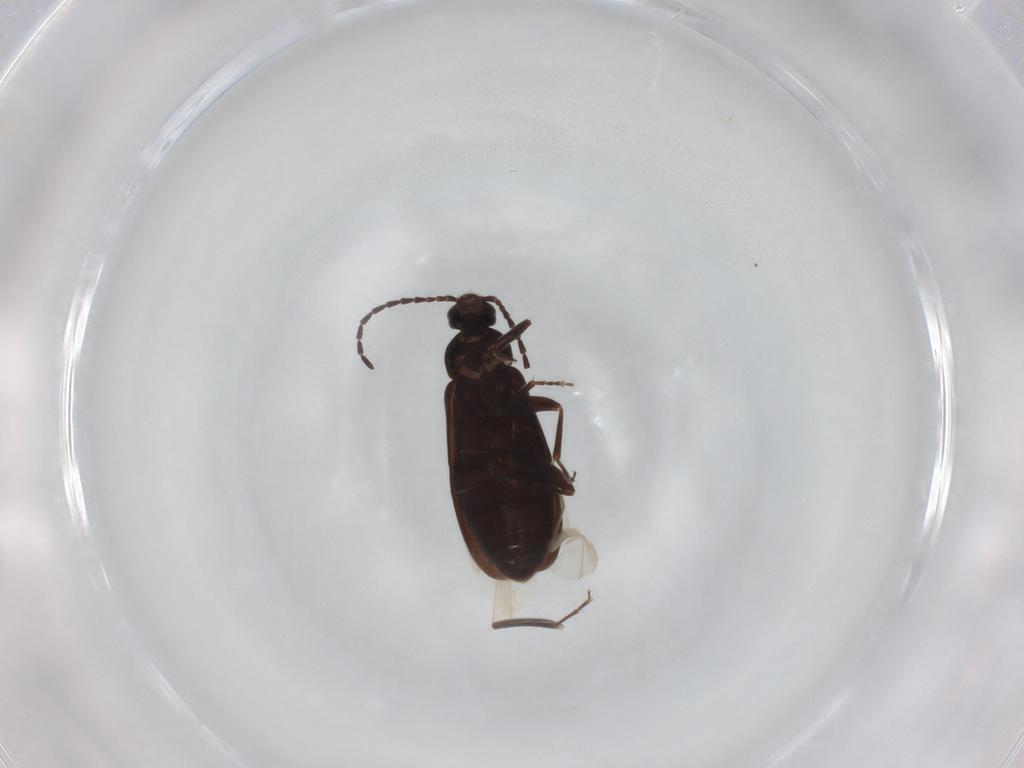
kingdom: Animalia
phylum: Arthropoda
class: Insecta
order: Coleoptera
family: Scraptiidae
